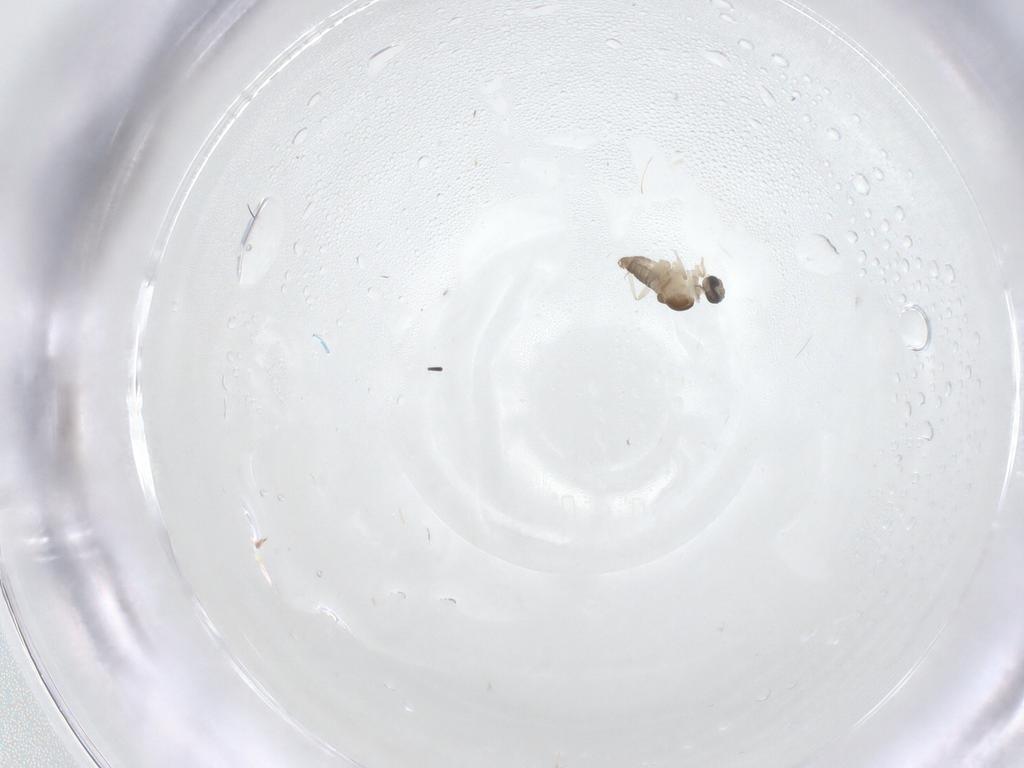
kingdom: Animalia
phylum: Arthropoda
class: Insecta
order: Diptera
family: Cecidomyiidae
